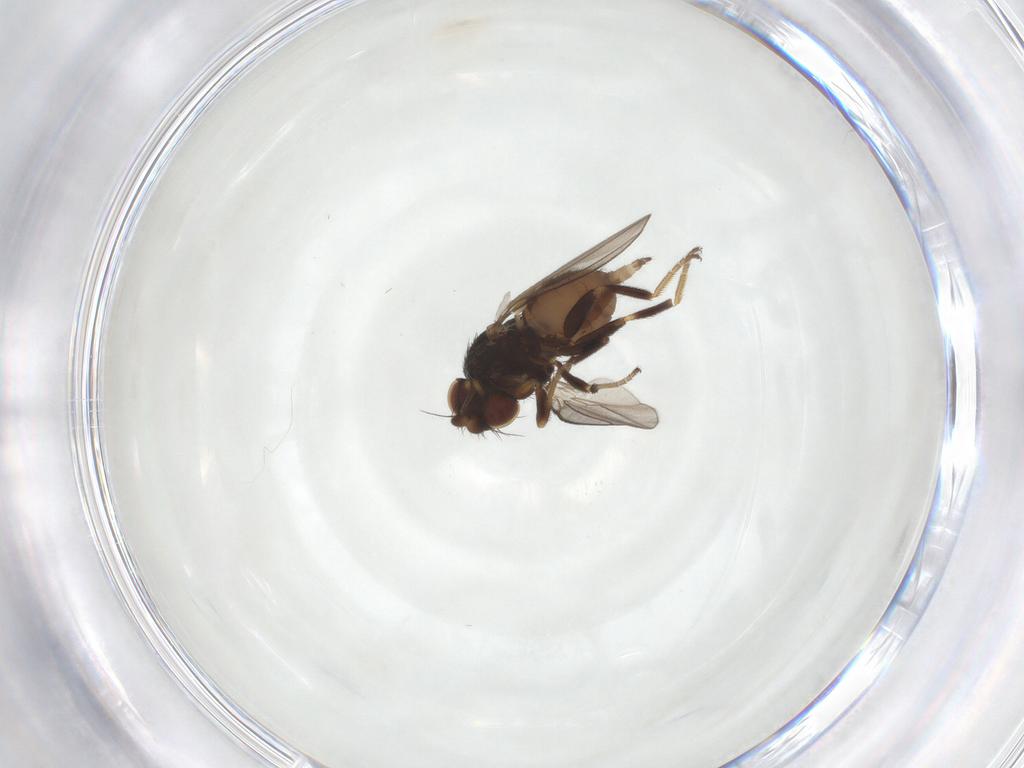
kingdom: Animalia
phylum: Arthropoda
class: Insecta
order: Diptera
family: Milichiidae
